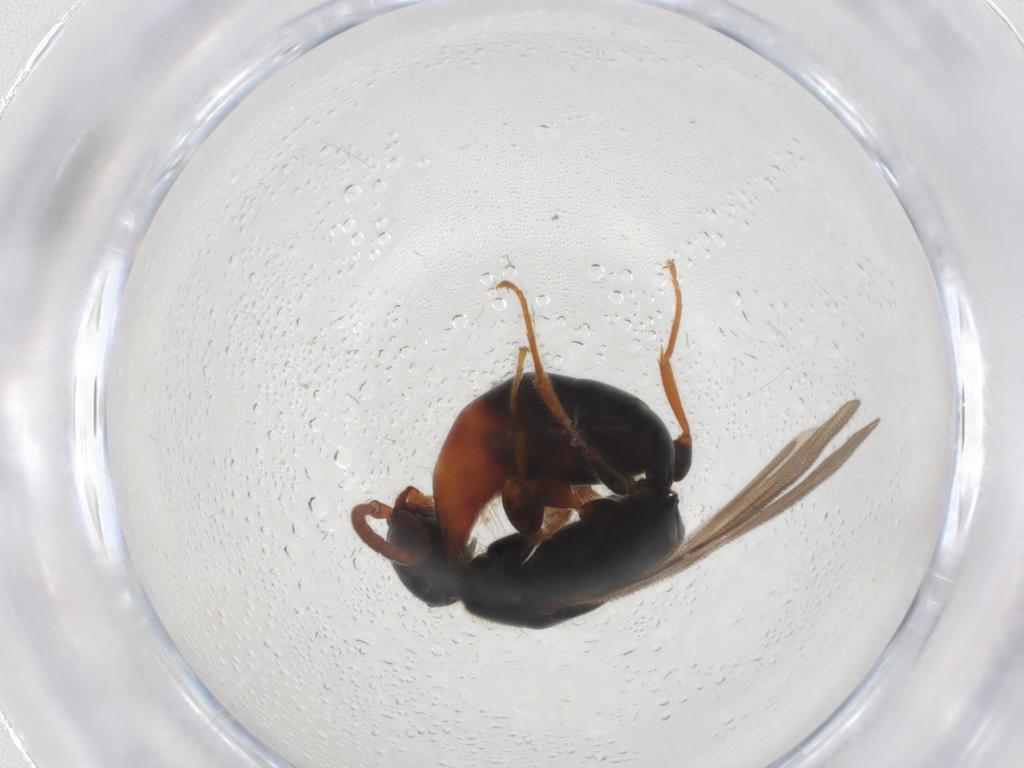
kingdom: Animalia
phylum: Arthropoda
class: Insecta
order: Hymenoptera
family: Bethylidae
